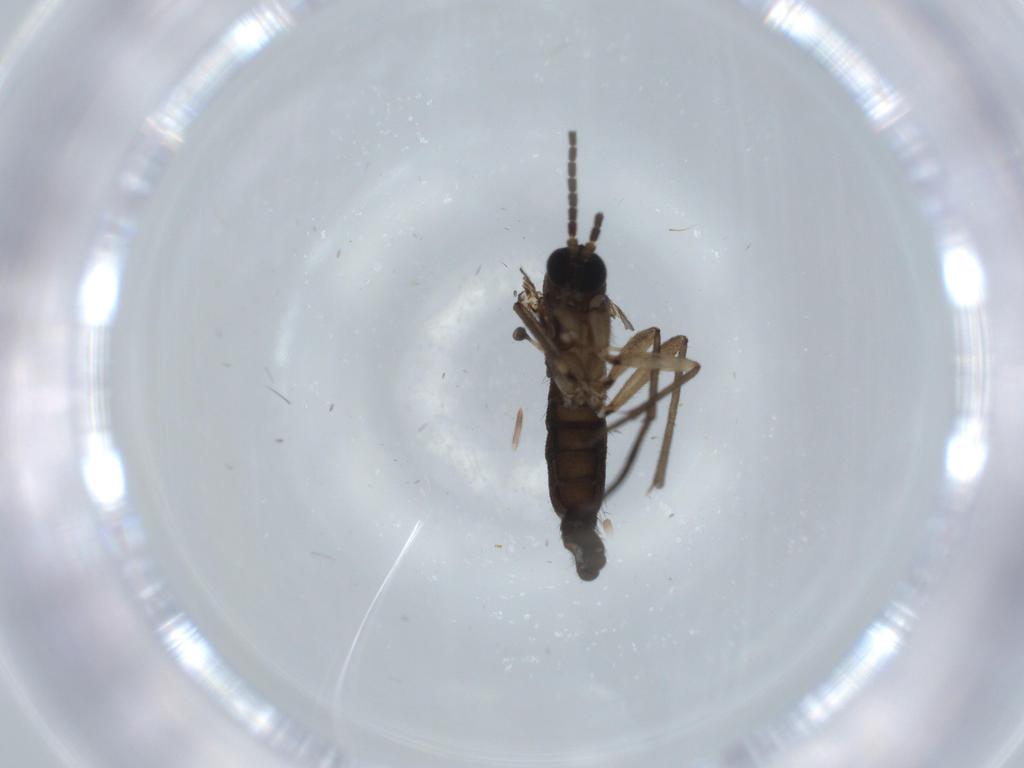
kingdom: Animalia
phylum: Arthropoda
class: Insecta
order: Diptera
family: Sciaridae
